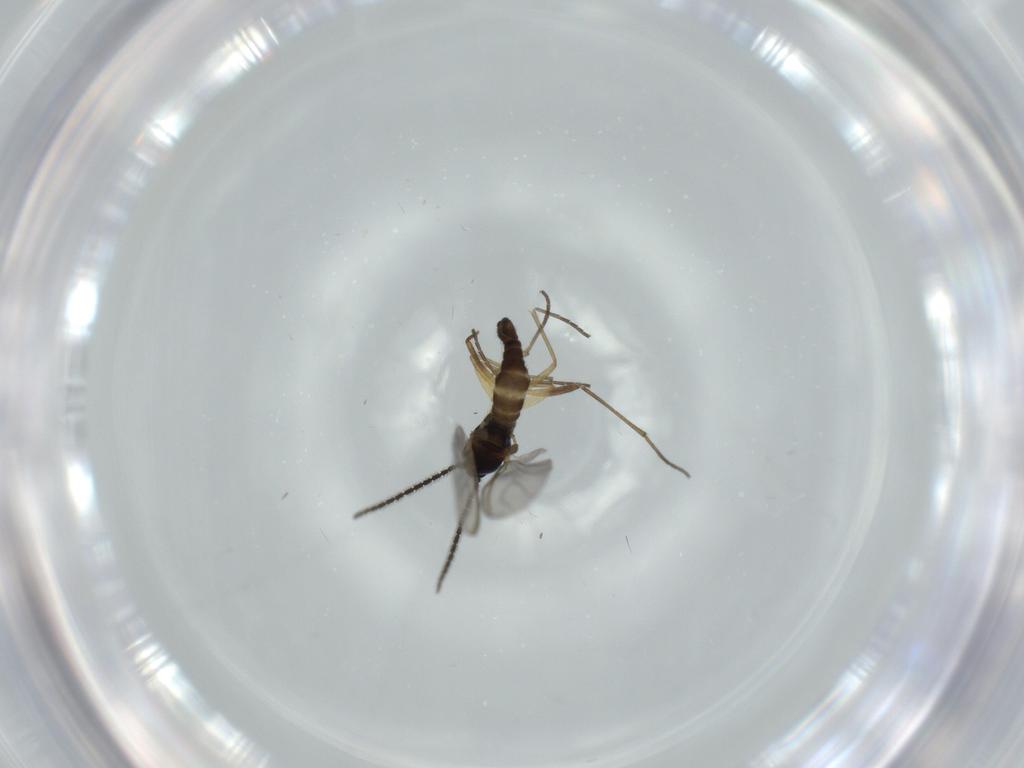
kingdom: Animalia
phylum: Arthropoda
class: Insecta
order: Diptera
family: Sciaridae
